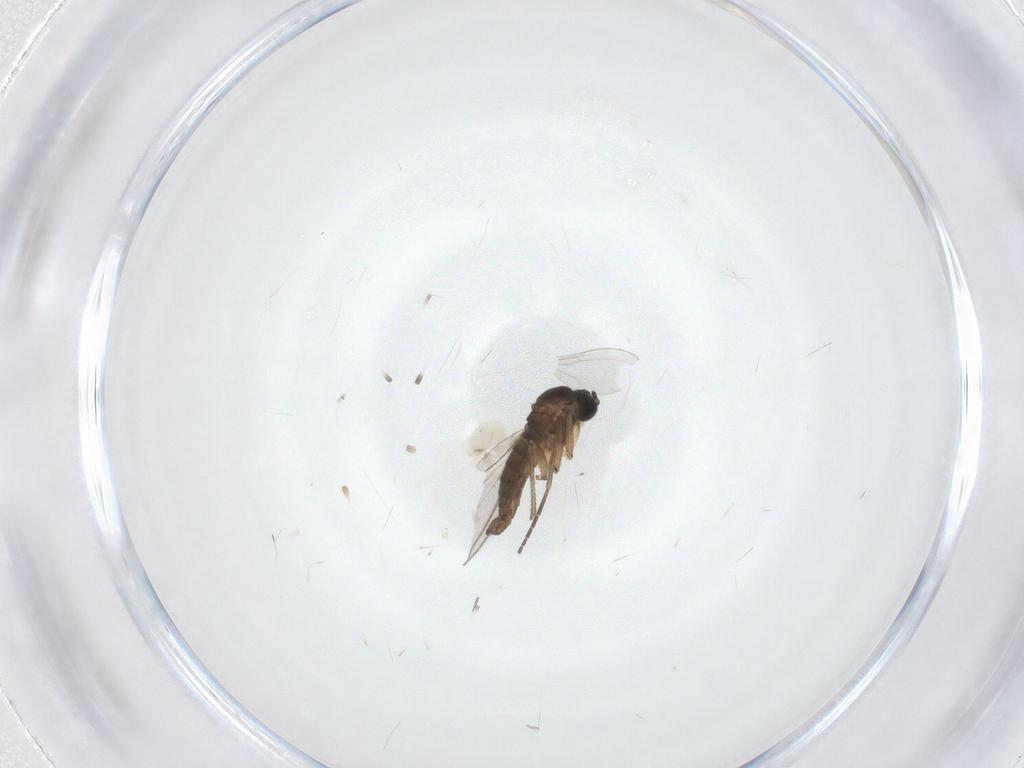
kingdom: Animalia
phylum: Arthropoda
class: Arachnida
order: Trombidiformes
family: Anystidae
